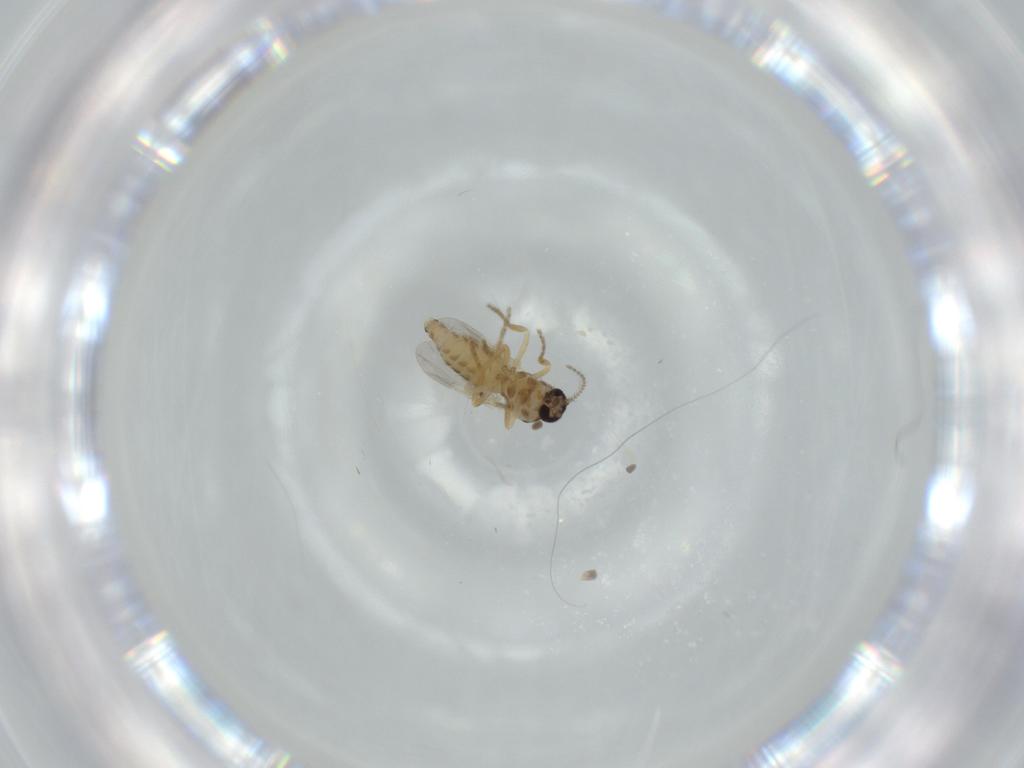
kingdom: Animalia
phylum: Arthropoda
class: Insecta
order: Diptera
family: Ceratopogonidae
